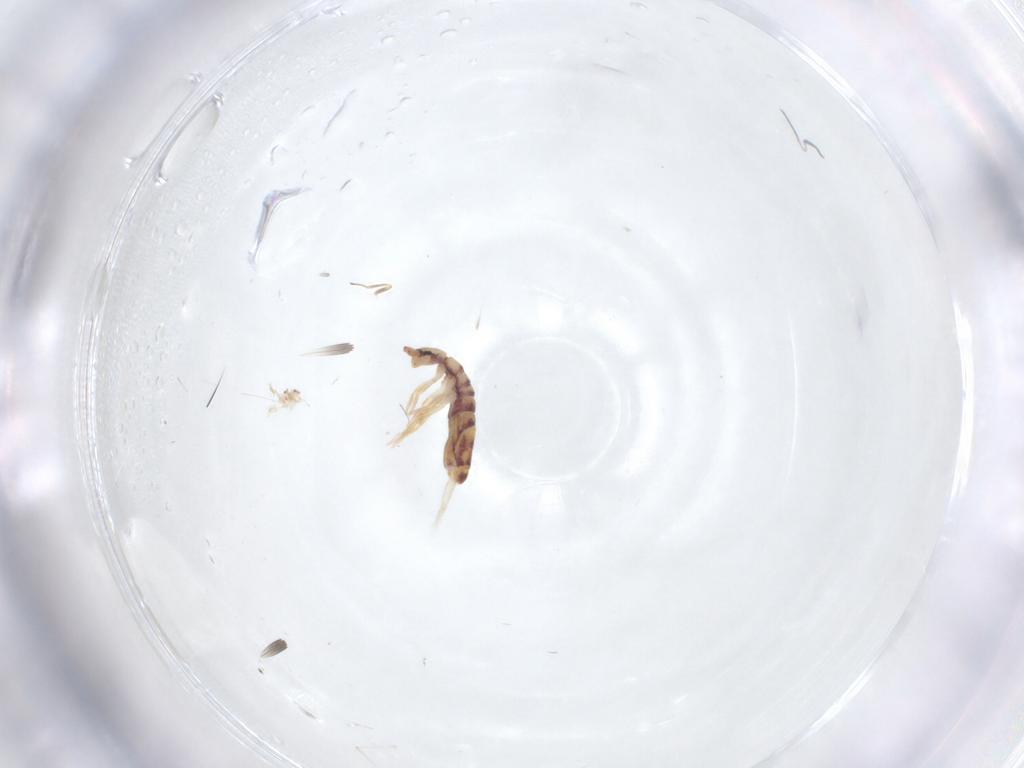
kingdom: Animalia
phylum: Arthropoda
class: Collembola
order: Entomobryomorpha
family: Entomobryidae
